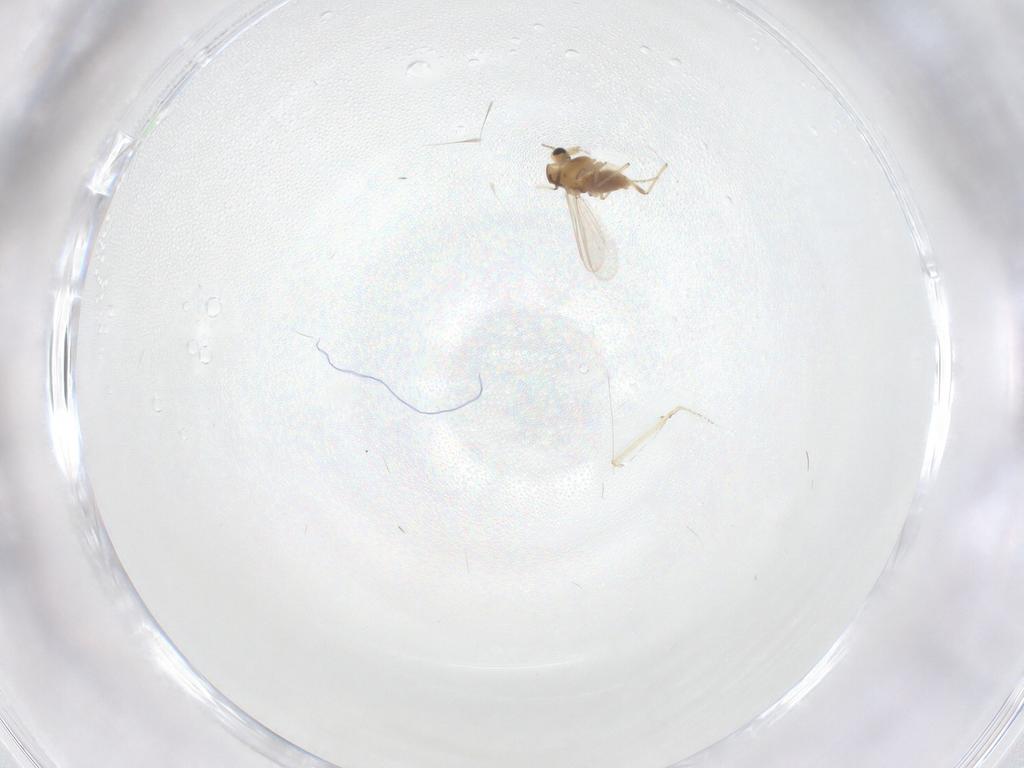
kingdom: Animalia
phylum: Arthropoda
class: Insecta
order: Diptera
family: Chironomidae
